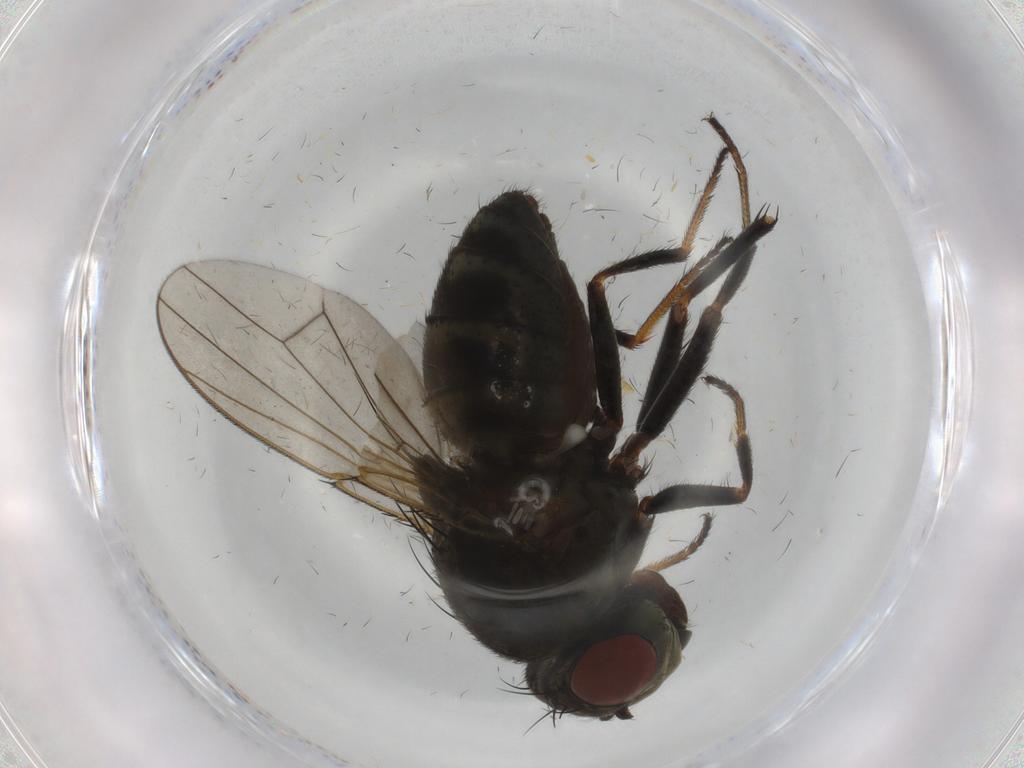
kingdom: Animalia
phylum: Arthropoda
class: Insecta
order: Diptera
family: Ephydridae
